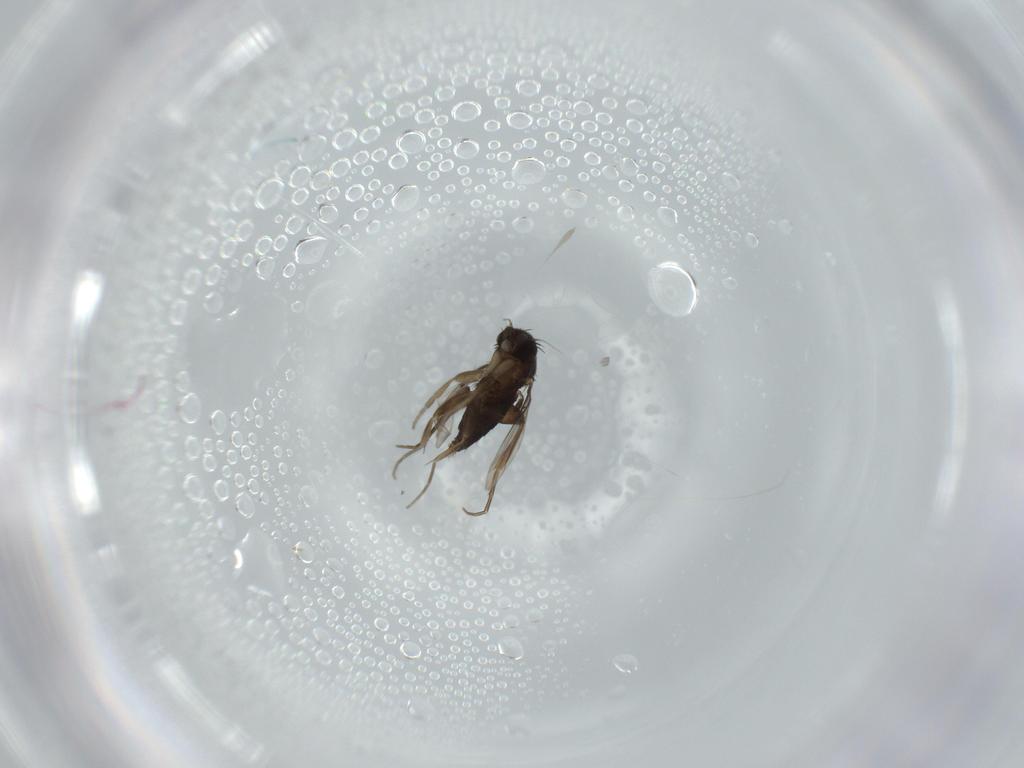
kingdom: Animalia
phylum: Arthropoda
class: Insecta
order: Diptera
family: Phoridae
